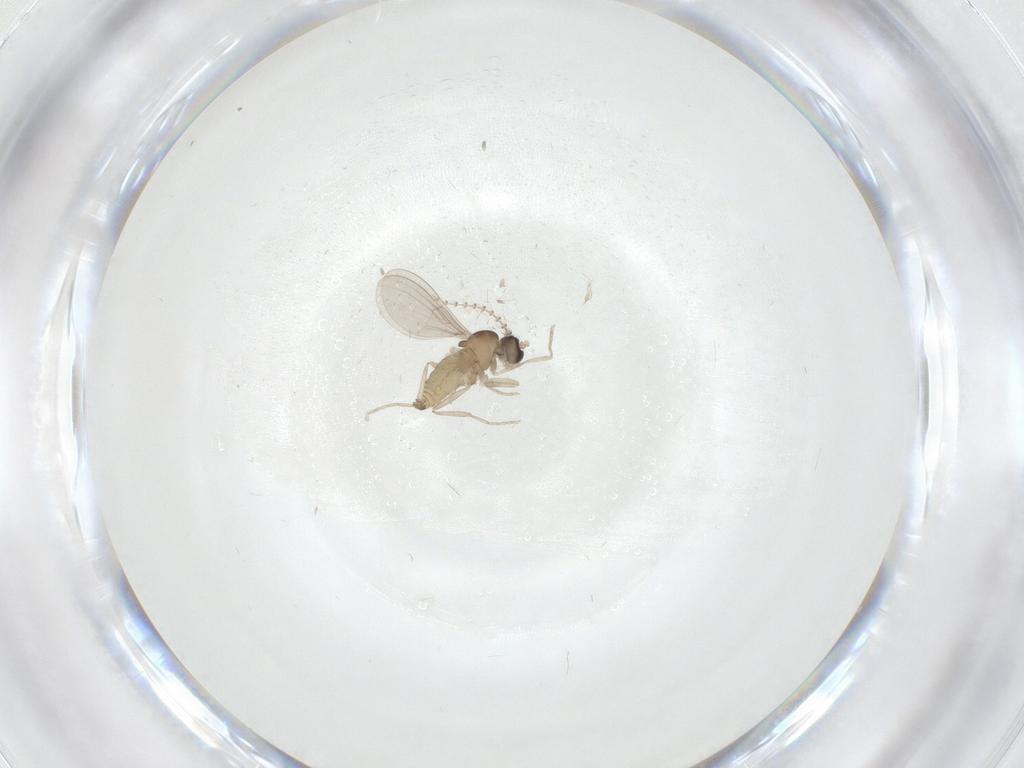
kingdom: Animalia
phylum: Arthropoda
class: Insecta
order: Diptera
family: Cecidomyiidae
